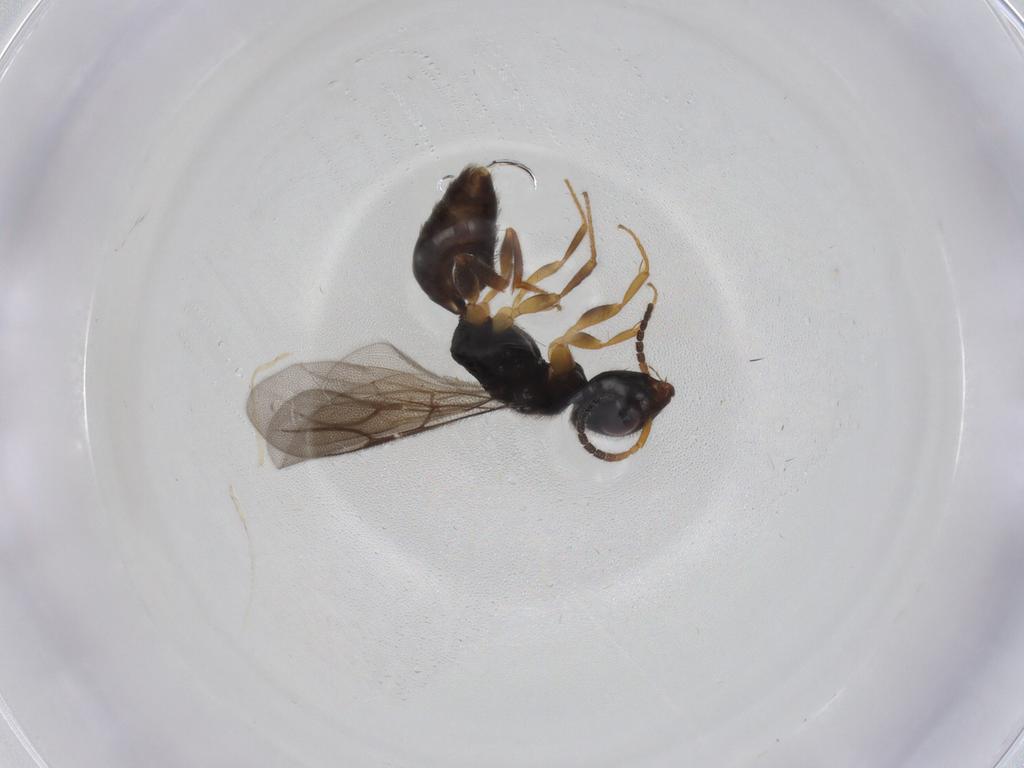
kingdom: Animalia
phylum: Arthropoda
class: Insecta
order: Hymenoptera
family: Bethylidae
